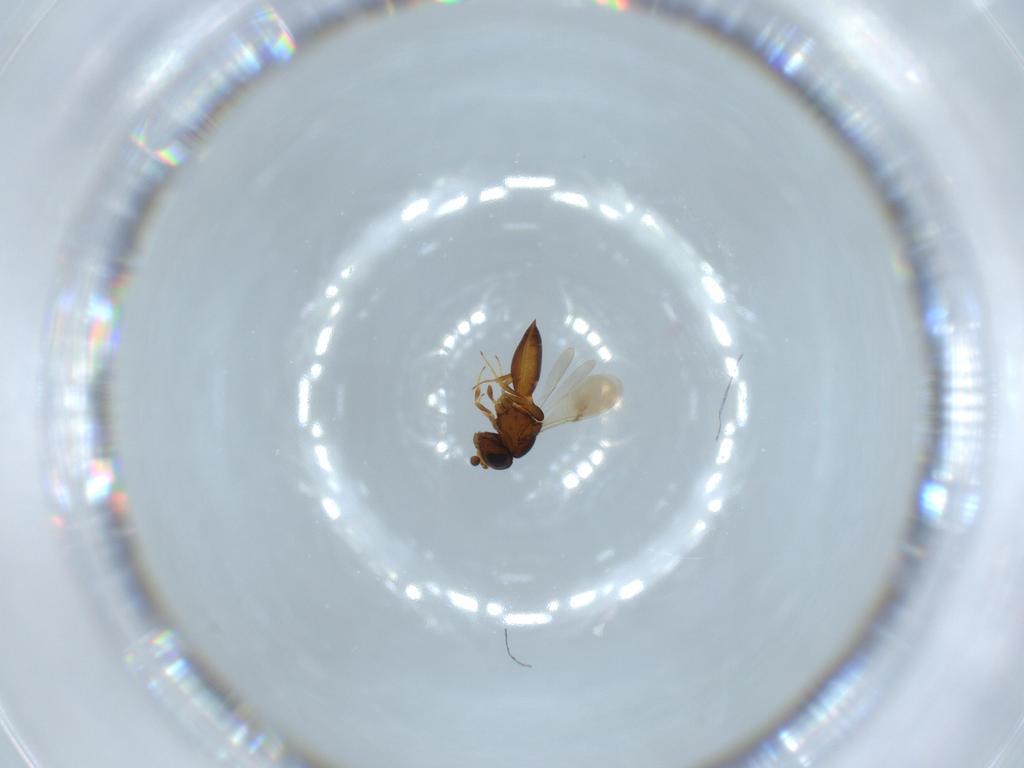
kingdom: Animalia
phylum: Arthropoda
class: Insecta
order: Hymenoptera
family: Scelionidae
